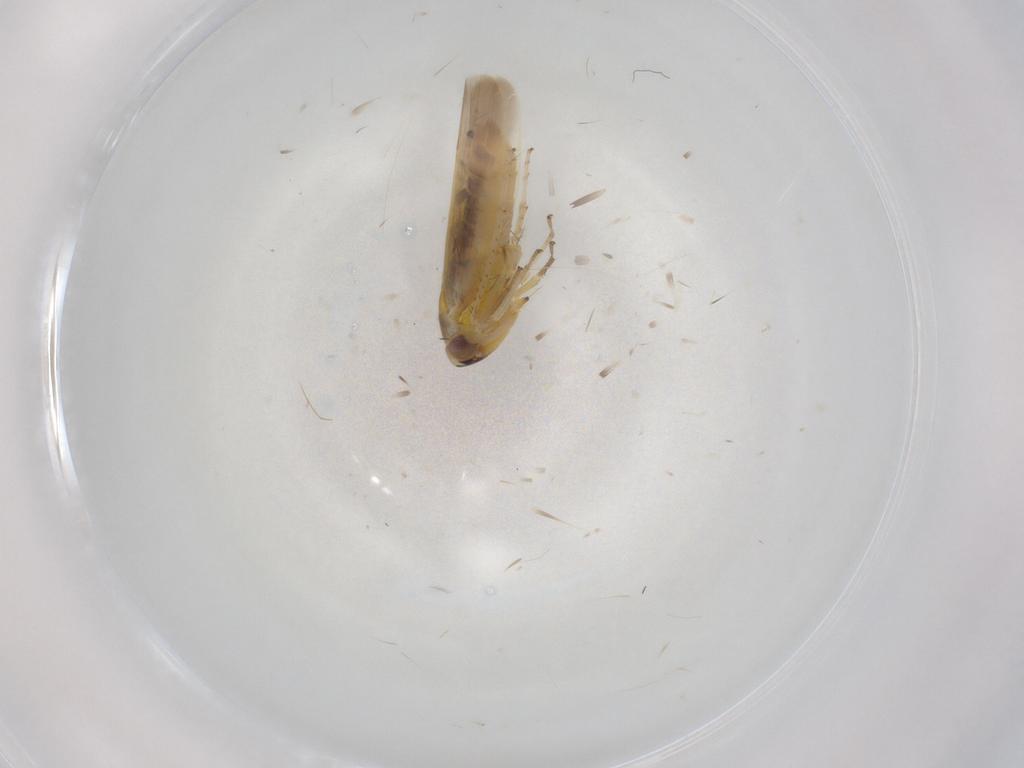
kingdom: Animalia
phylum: Arthropoda
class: Insecta
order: Hemiptera
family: Cicadellidae
